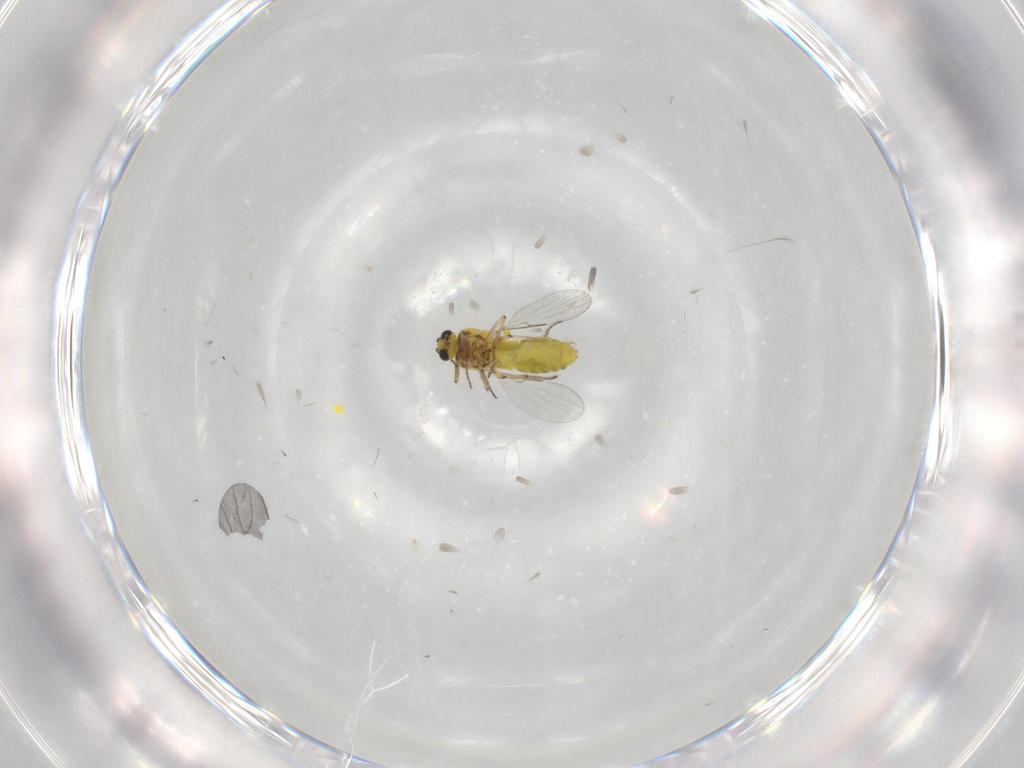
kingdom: Animalia
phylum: Arthropoda
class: Insecta
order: Diptera
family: Ceratopogonidae
